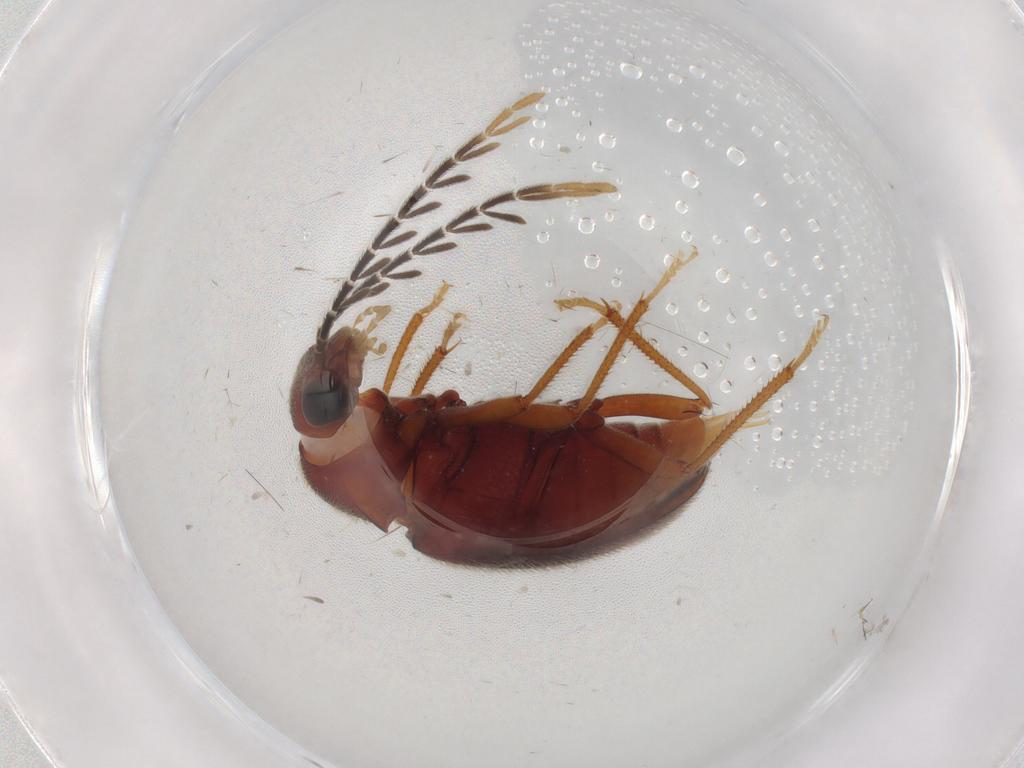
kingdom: Animalia
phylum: Arthropoda
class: Insecta
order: Coleoptera
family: Ptilodactylidae
